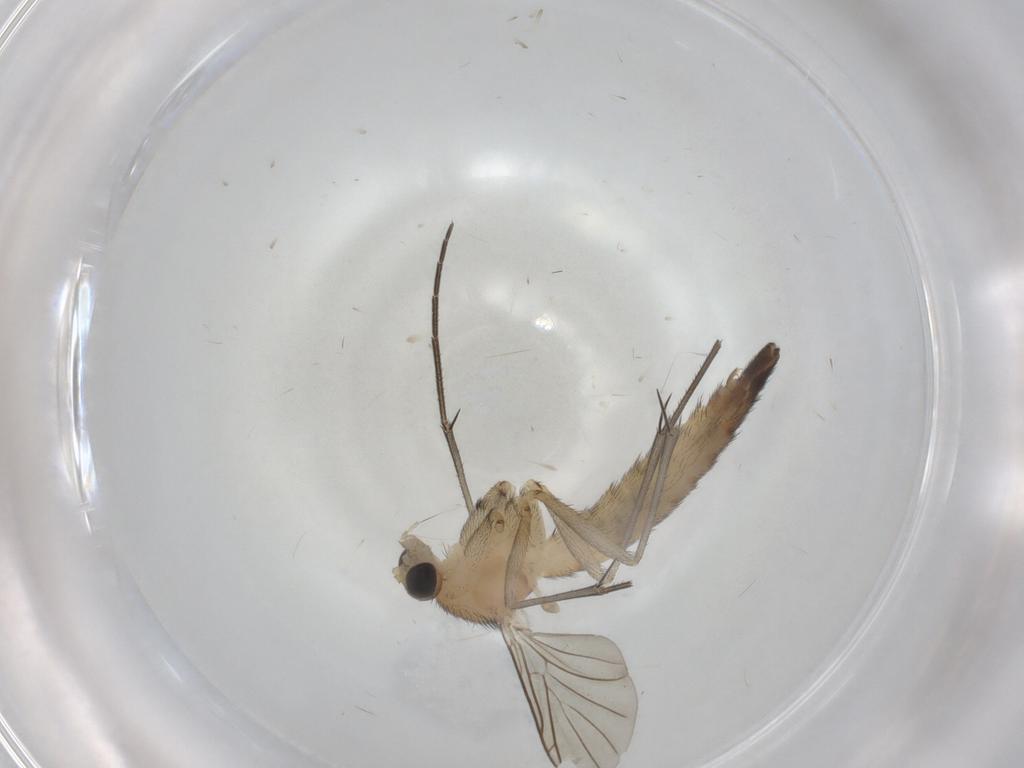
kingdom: Animalia
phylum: Arthropoda
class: Insecta
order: Diptera
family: Keroplatidae
